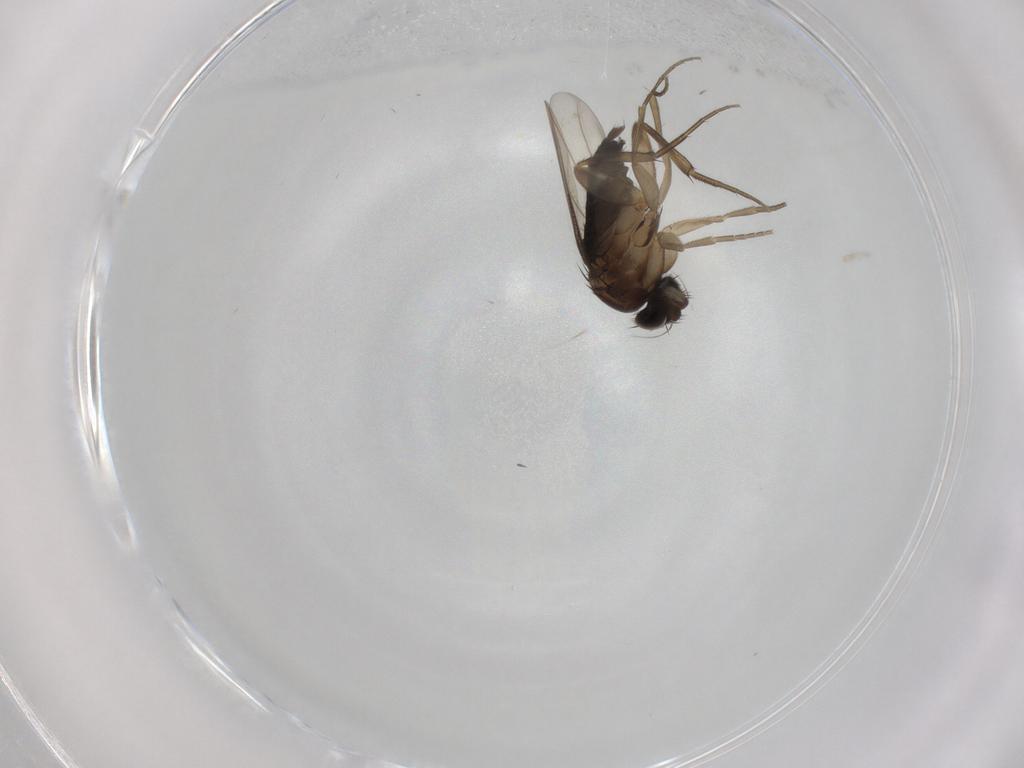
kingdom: Animalia
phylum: Arthropoda
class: Insecta
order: Diptera
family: Phoridae
